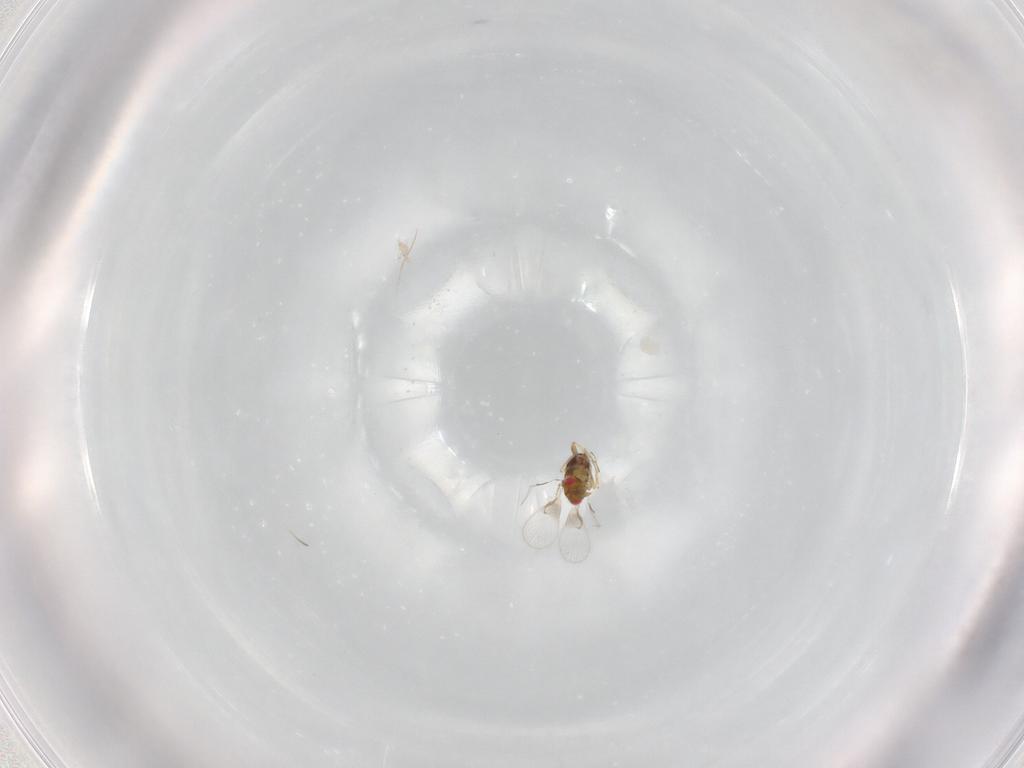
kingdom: Animalia
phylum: Arthropoda
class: Insecta
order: Hymenoptera
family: Trichogrammatidae
